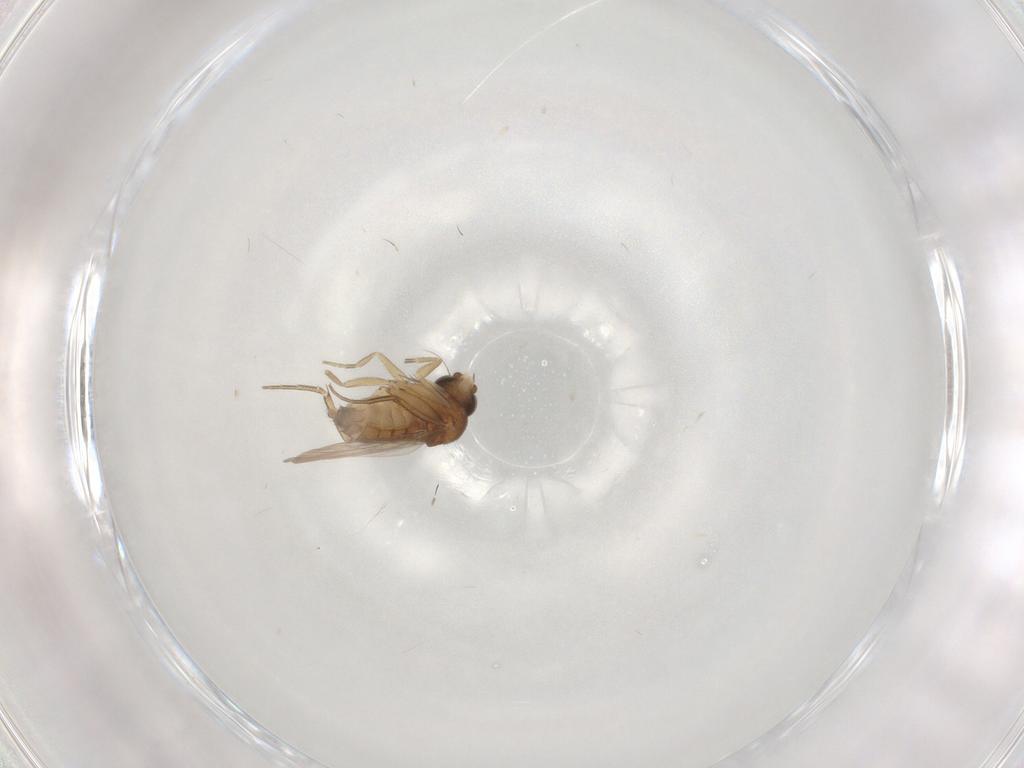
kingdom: Animalia
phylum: Arthropoda
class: Insecta
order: Diptera
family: Phoridae
